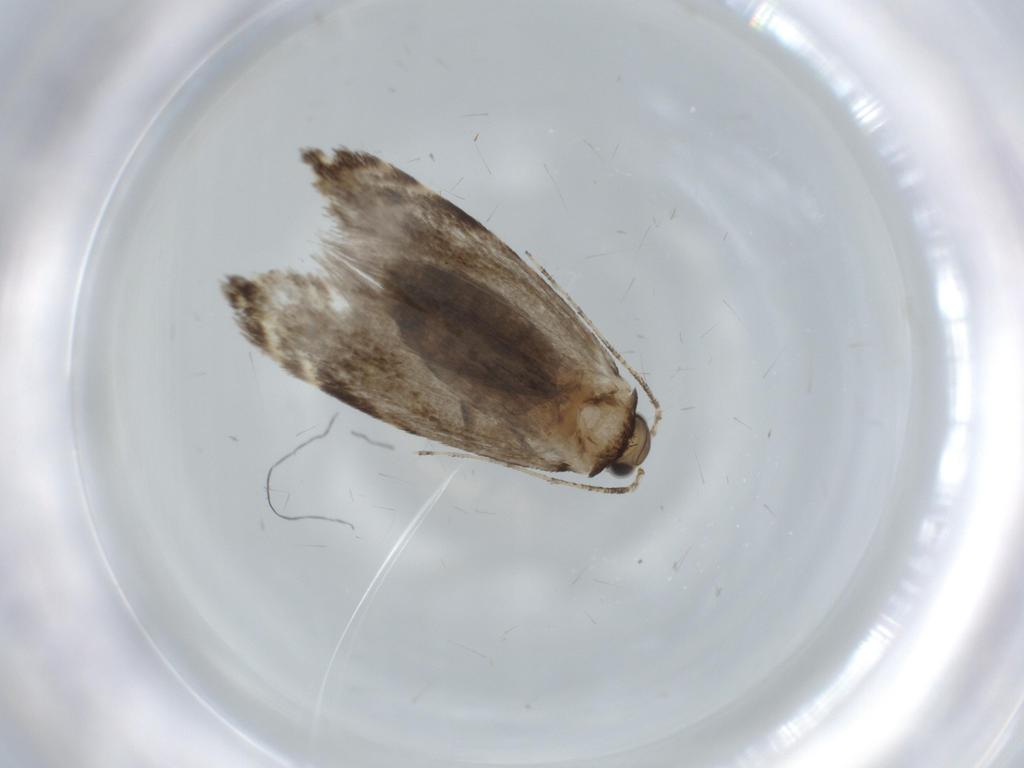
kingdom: Animalia
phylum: Arthropoda
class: Insecta
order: Lepidoptera
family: Tineidae
